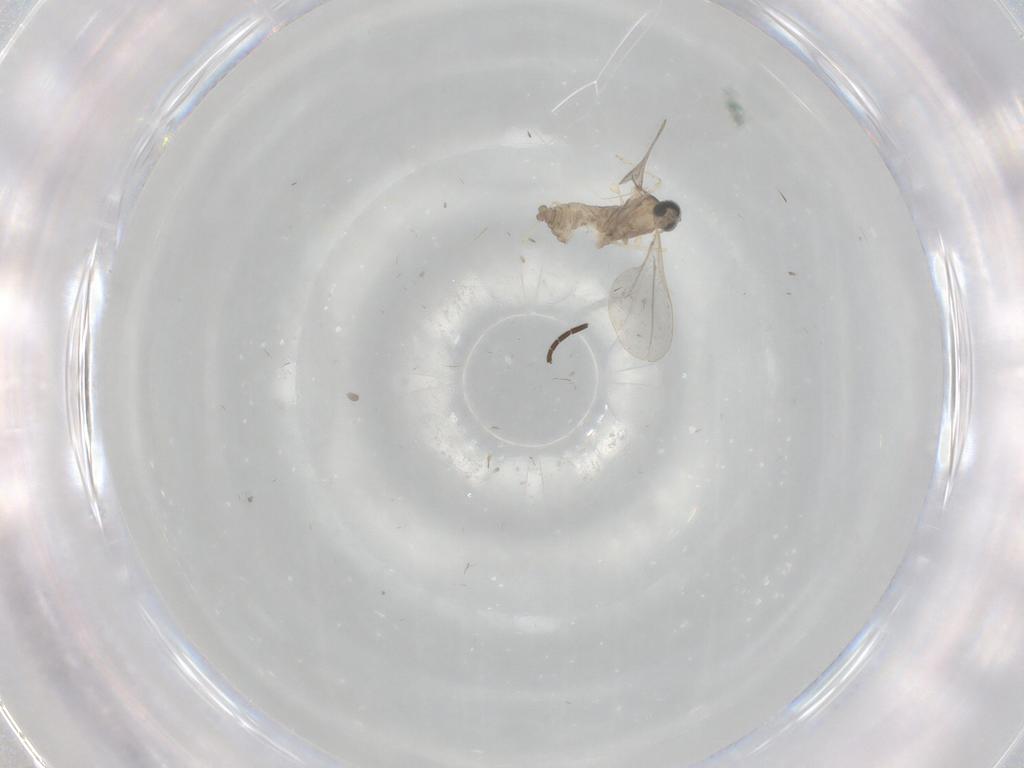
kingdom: Animalia
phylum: Arthropoda
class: Insecta
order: Diptera
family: Cecidomyiidae
